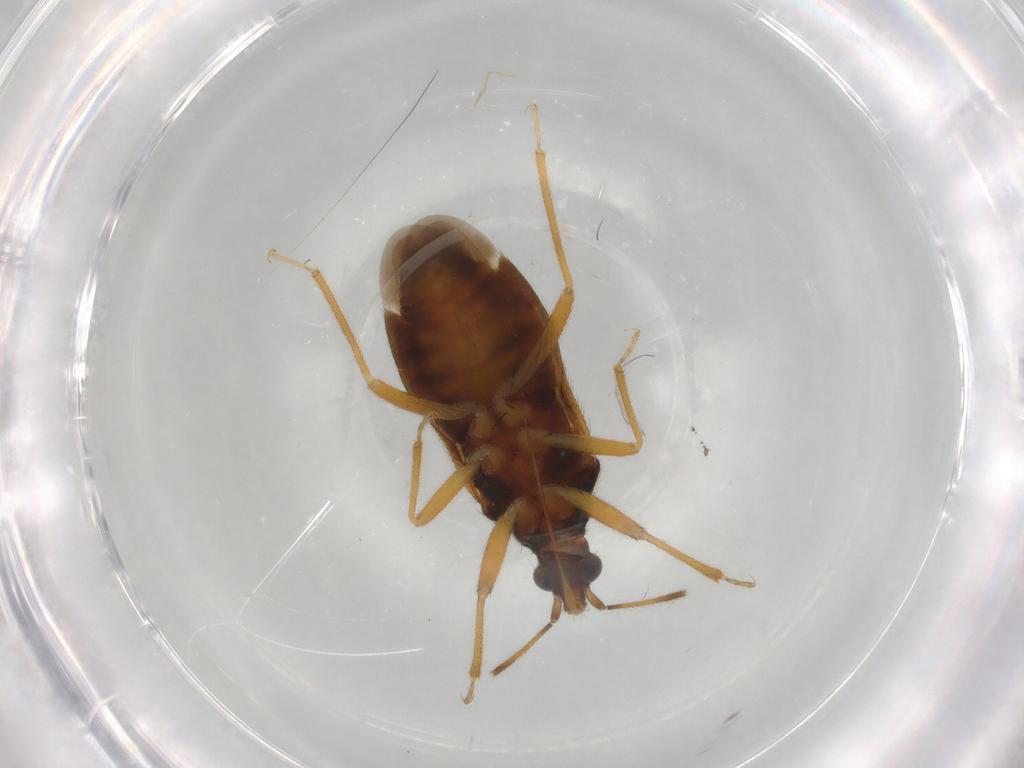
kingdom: Animalia
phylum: Arthropoda
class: Insecta
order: Hemiptera
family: Anthocoridae
